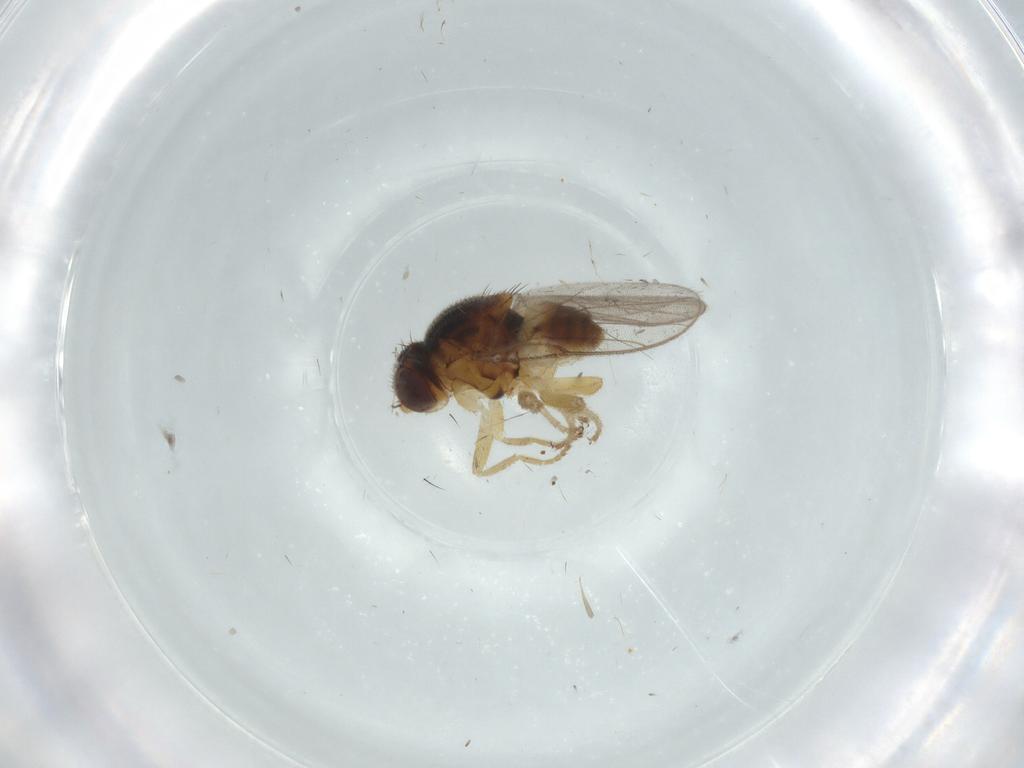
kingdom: Animalia
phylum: Arthropoda
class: Insecta
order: Diptera
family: Chloropidae
